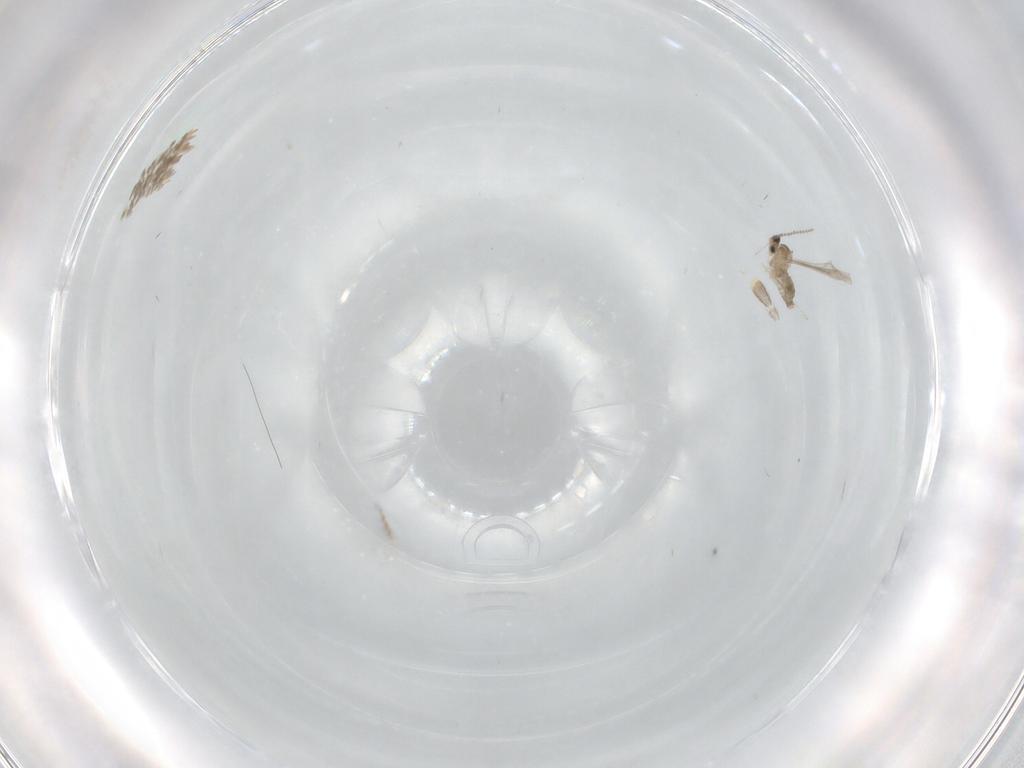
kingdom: Animalia
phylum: Arthropoda
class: Insecta
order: Diptera
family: Cecidomyiidae
